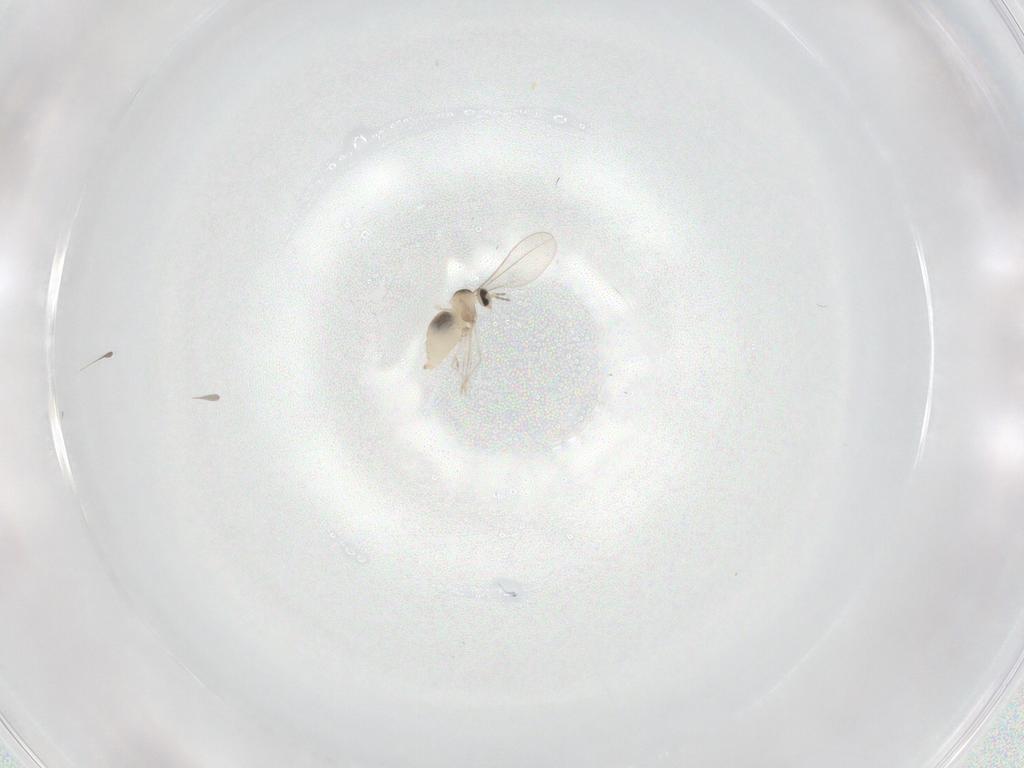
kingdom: Animalia
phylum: Arthropoda
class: Insecta
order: Diptera
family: Cecidomyiidae
